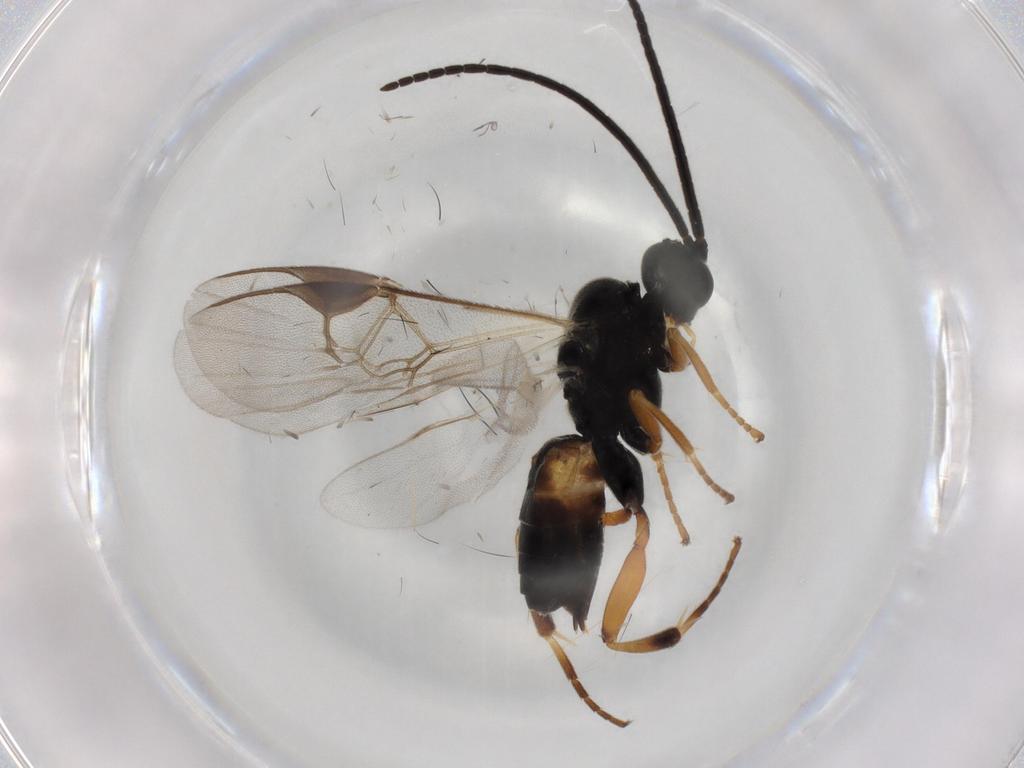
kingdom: Animalia
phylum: Arthropoda
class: Insecta
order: Hymenoptera
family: Braconidae
